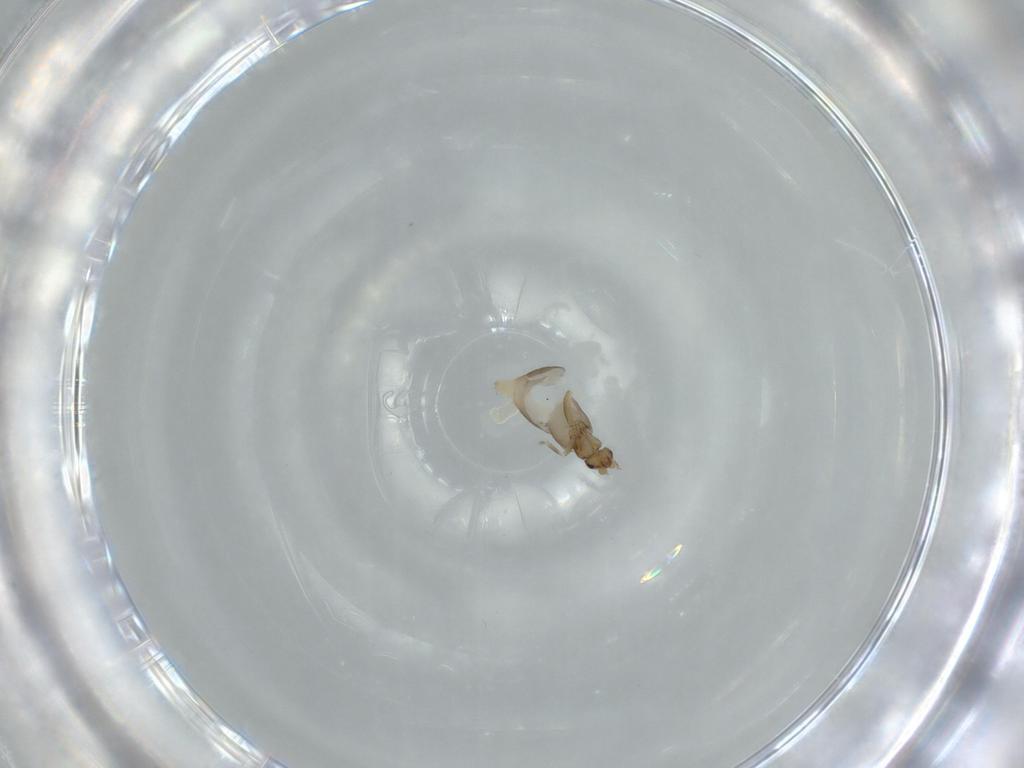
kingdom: Animalia
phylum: Arthropoda
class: Insecta
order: Diptera
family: Phoridae
